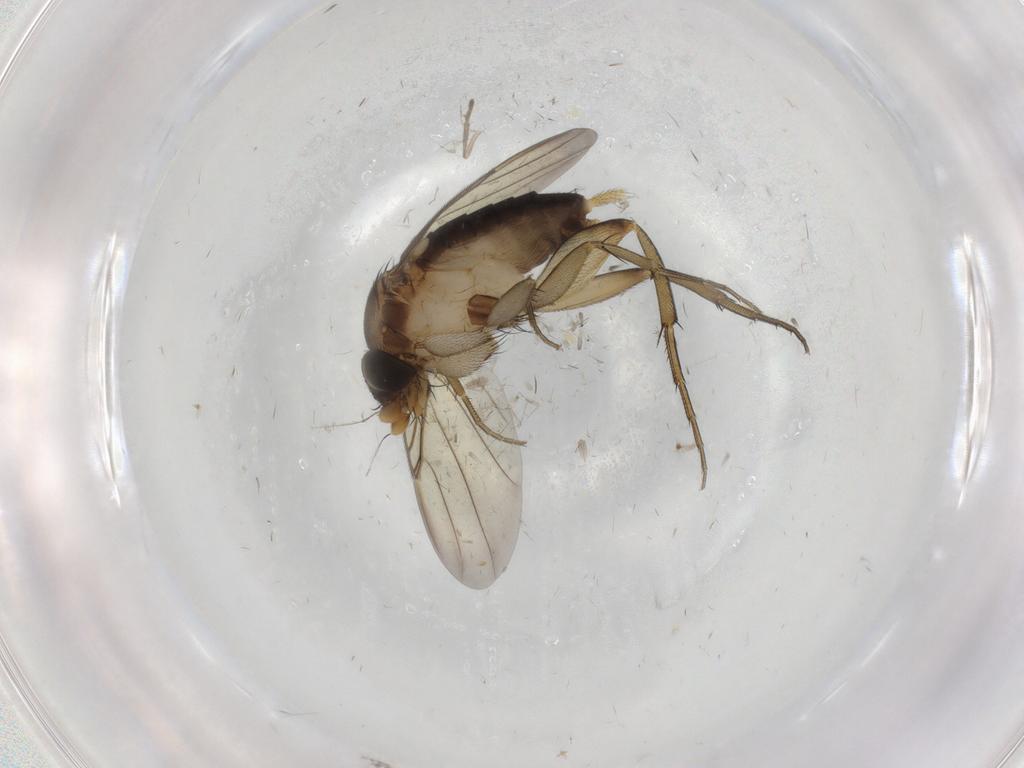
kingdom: Animalia
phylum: Arthropoda
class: Insecta
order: Diptera
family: Phoridae
